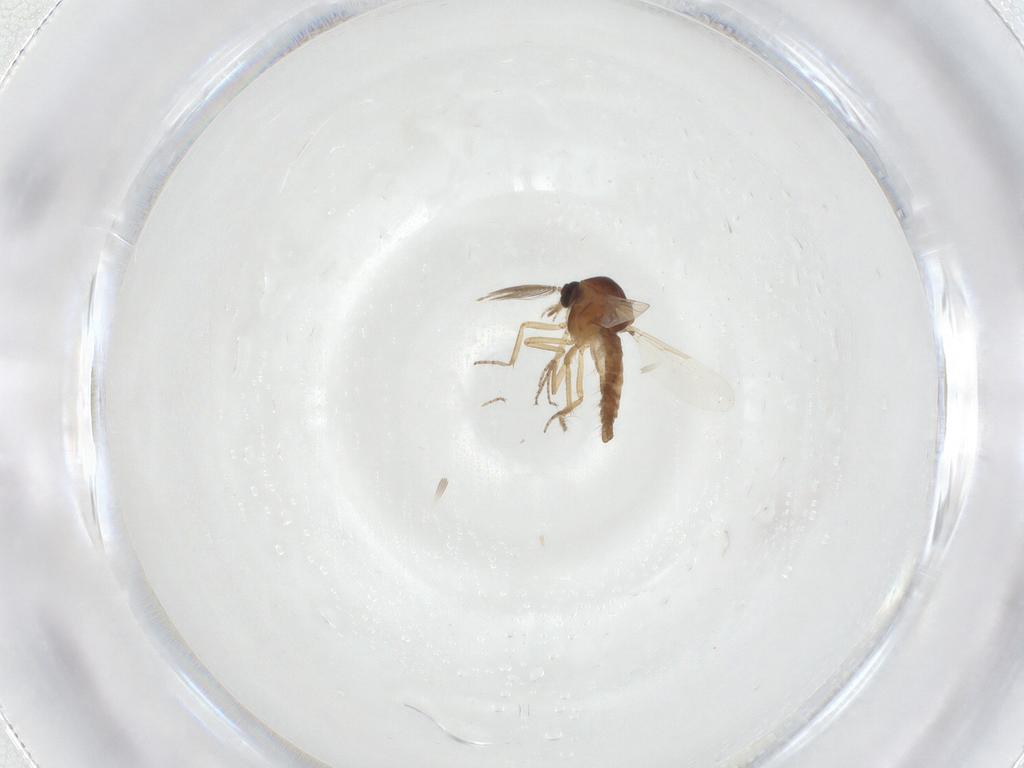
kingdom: Animalia
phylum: Arthropoda
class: Insecta
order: Diptera
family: Ceratopogonidae
